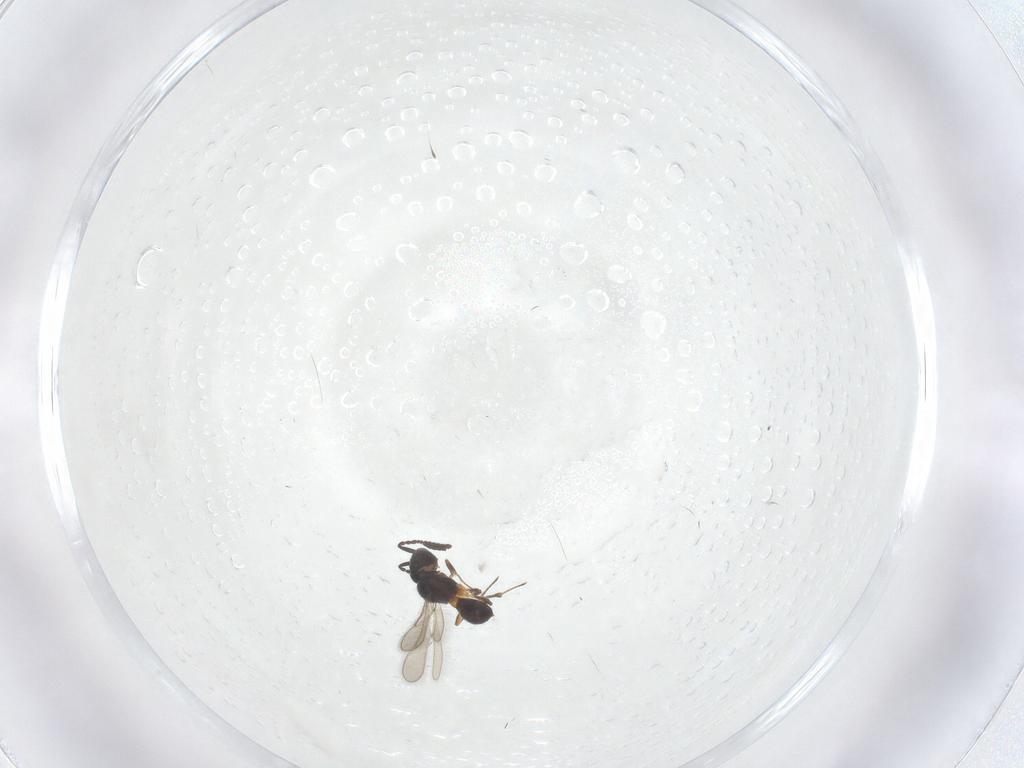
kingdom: Animalia
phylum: Arthropoda
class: Insecta
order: Hymenoptera
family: Scelionidae
